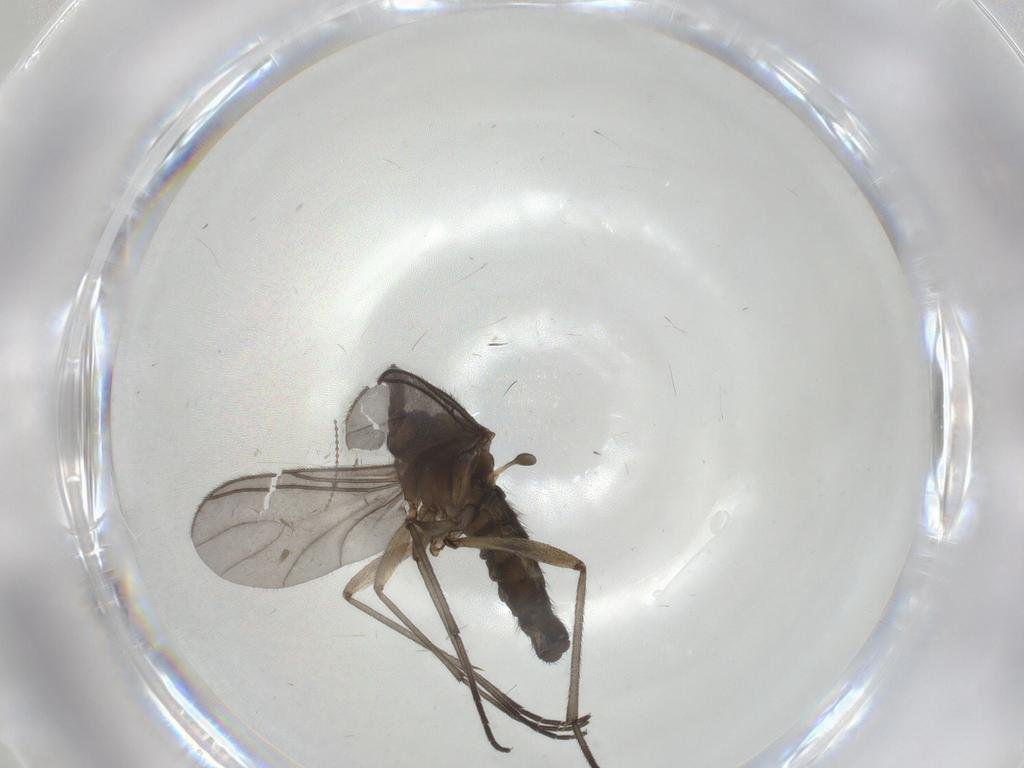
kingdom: Animalia
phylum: Arthropoda
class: Insecta
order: Diptera
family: Sciaridae
